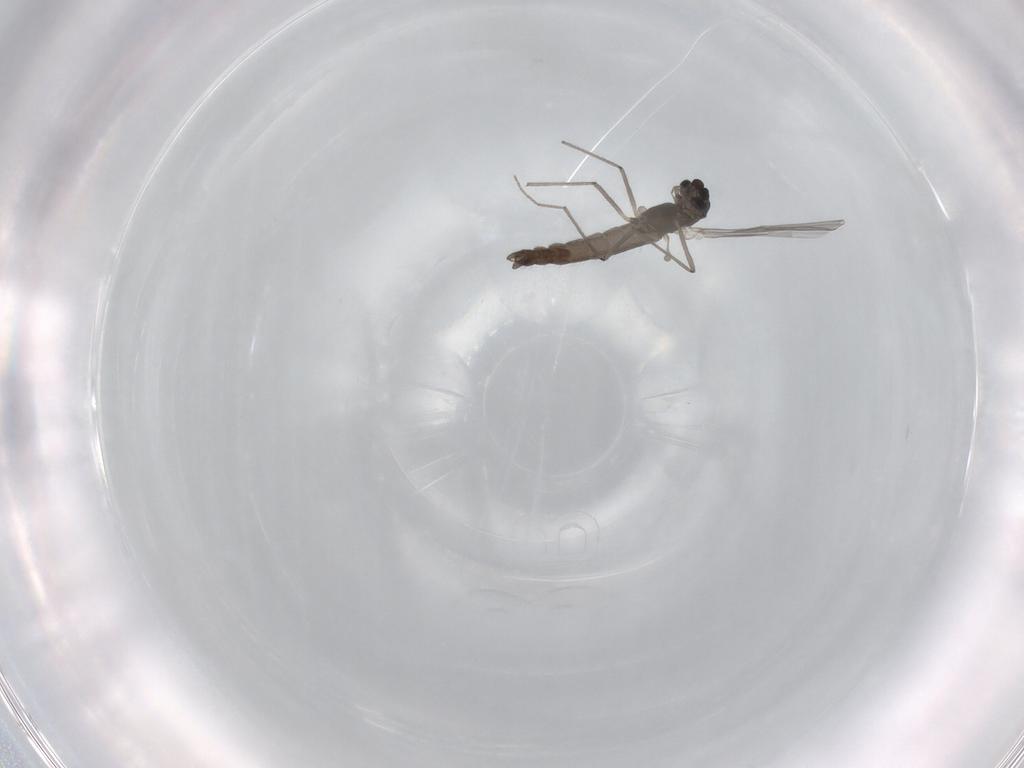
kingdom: Animalia
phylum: Arthropoda
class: Insecta
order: Diptera
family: Chironomidae
